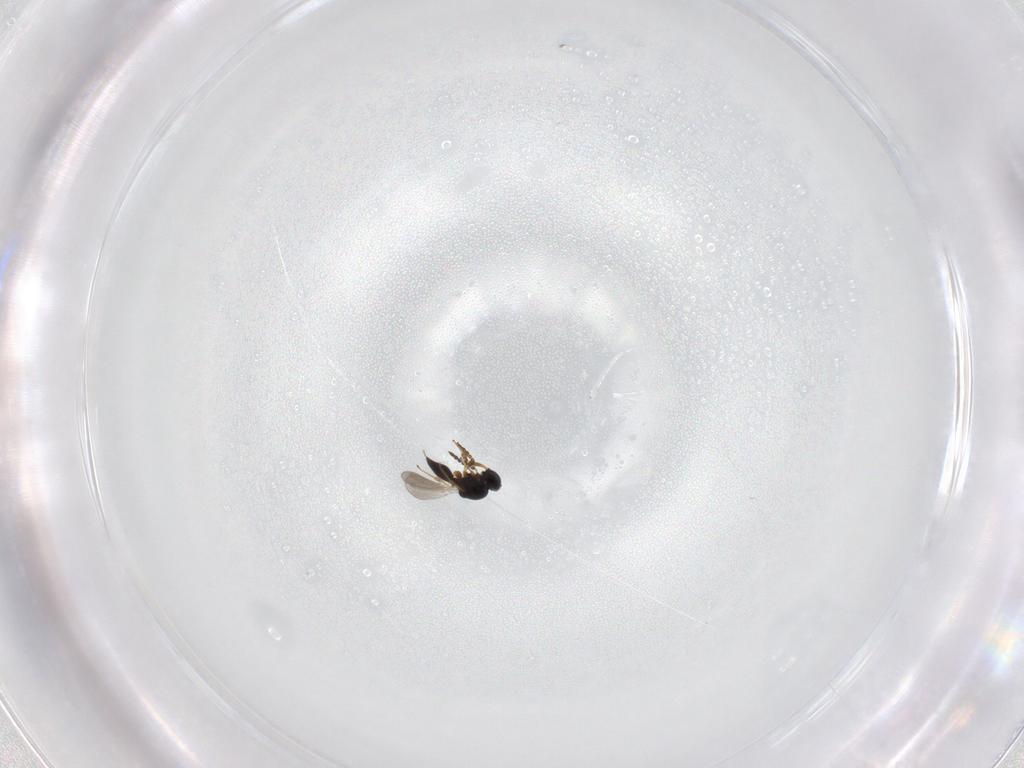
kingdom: Animalia
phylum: Arthropoda
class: Insecta
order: Hymenoptera
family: Platygastridae
